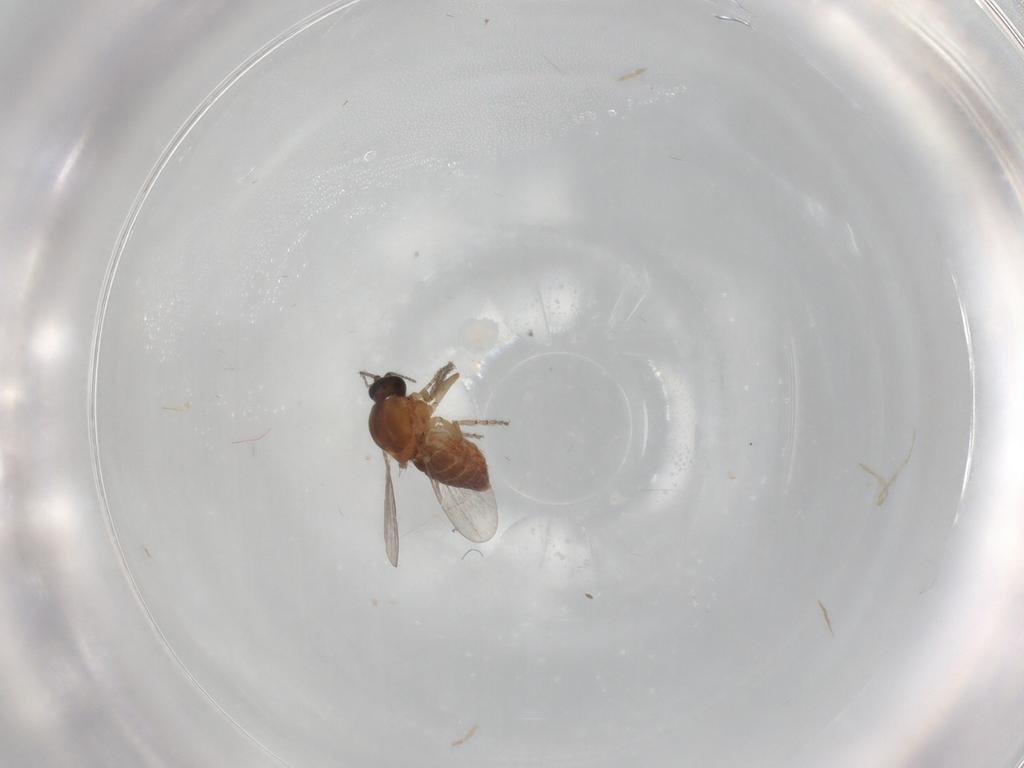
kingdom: Animalia
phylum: Arthropoda
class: Insecta
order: Diptera
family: Ceratopogonidae
